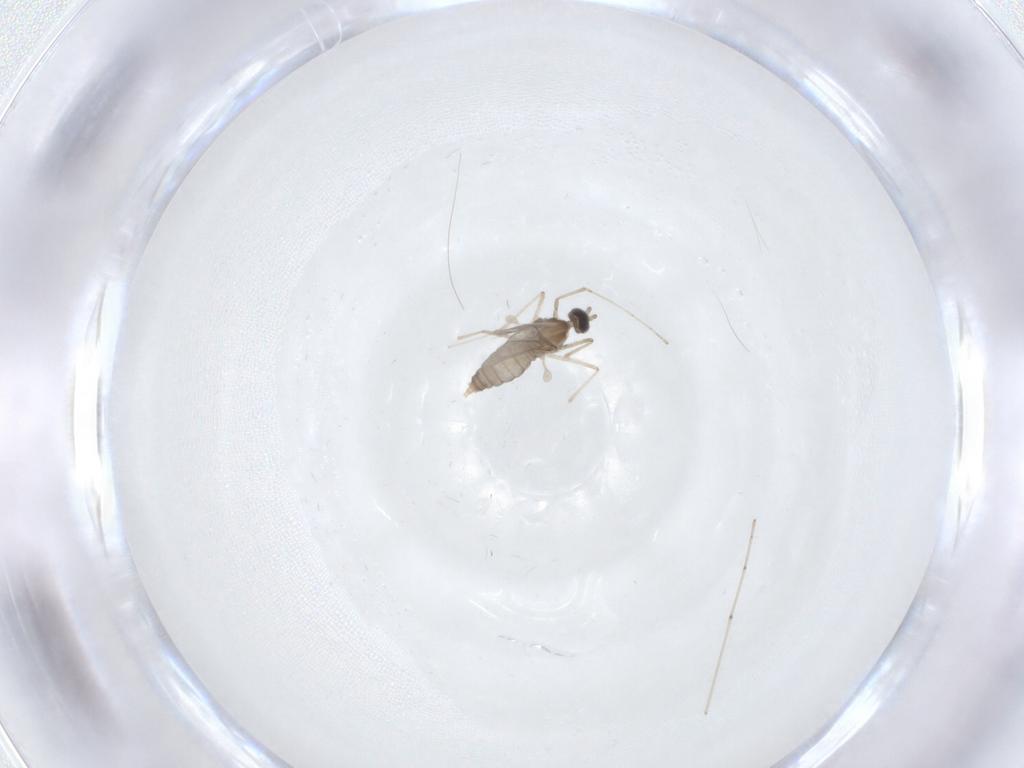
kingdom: Animalia
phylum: Arthropoda
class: Insecta
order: Diptera
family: Cecidomyiidae
